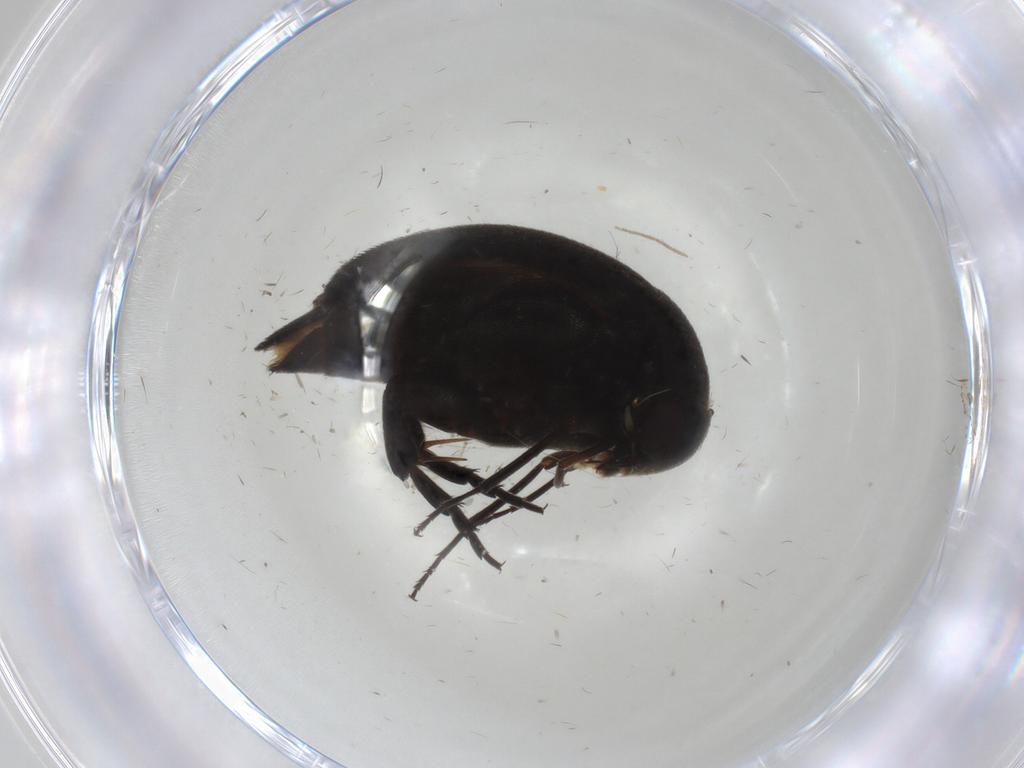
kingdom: Animalia
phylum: Arthropoda
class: Insecta
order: Coleoptera
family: Mordellidae
